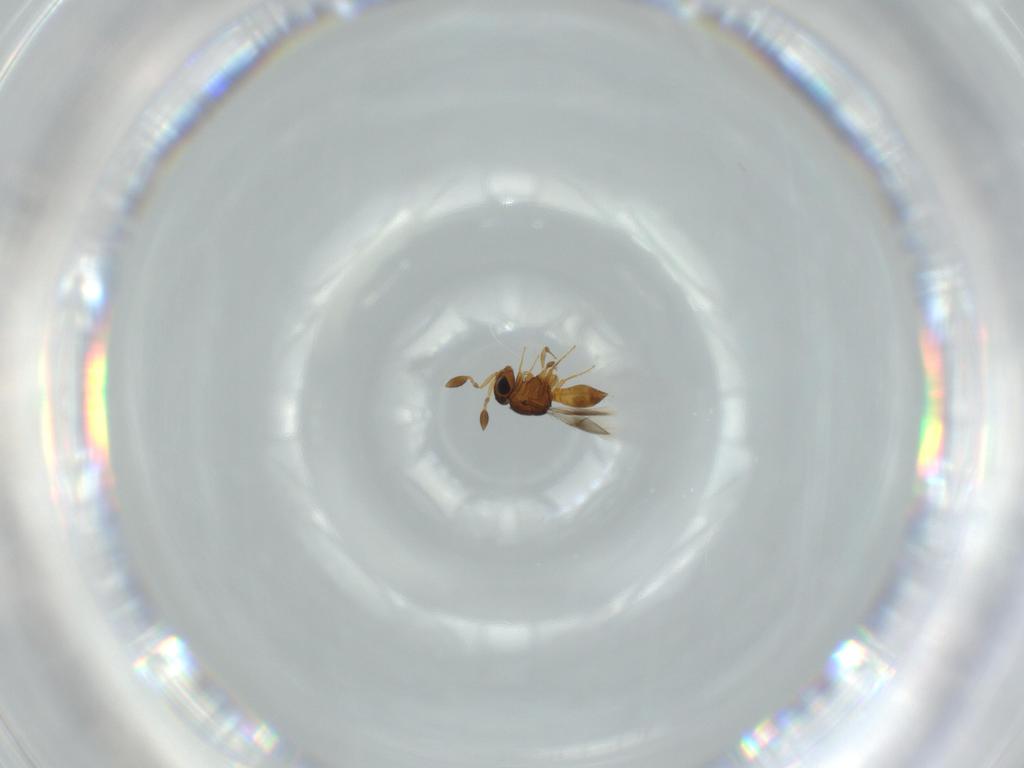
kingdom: Animalia
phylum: Arthropoda
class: Insecta
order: Hymenoptera
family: Scelionidae
